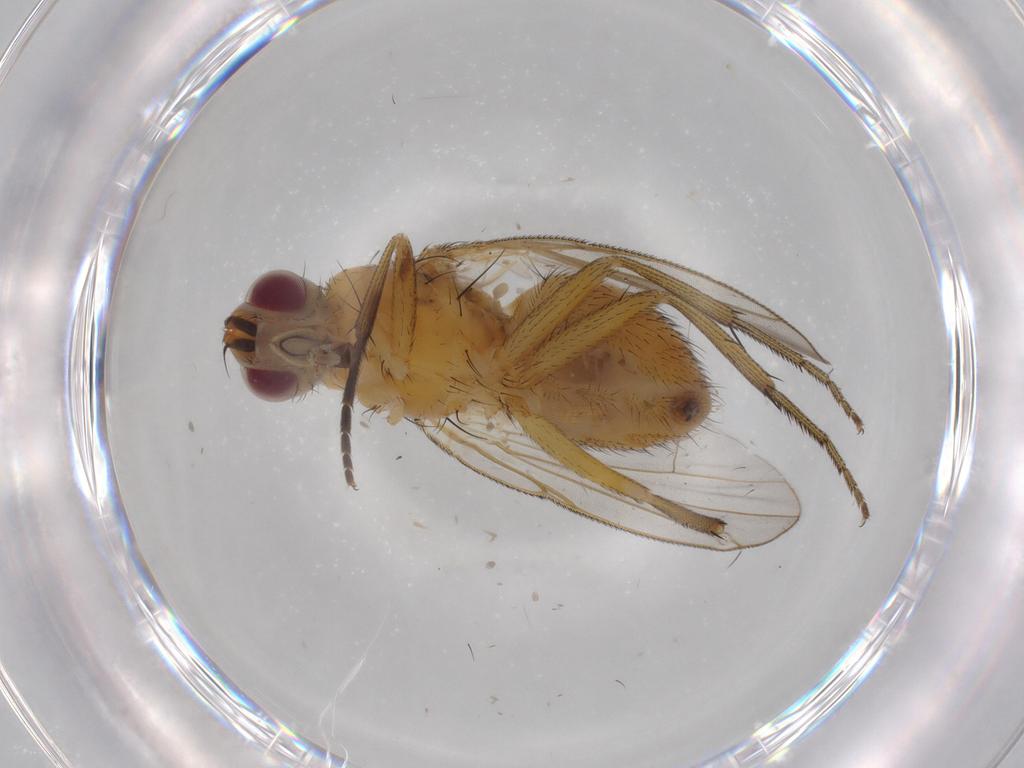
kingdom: Animalia
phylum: Arthropoda
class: Insecta
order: Diptera
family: Muscidae
